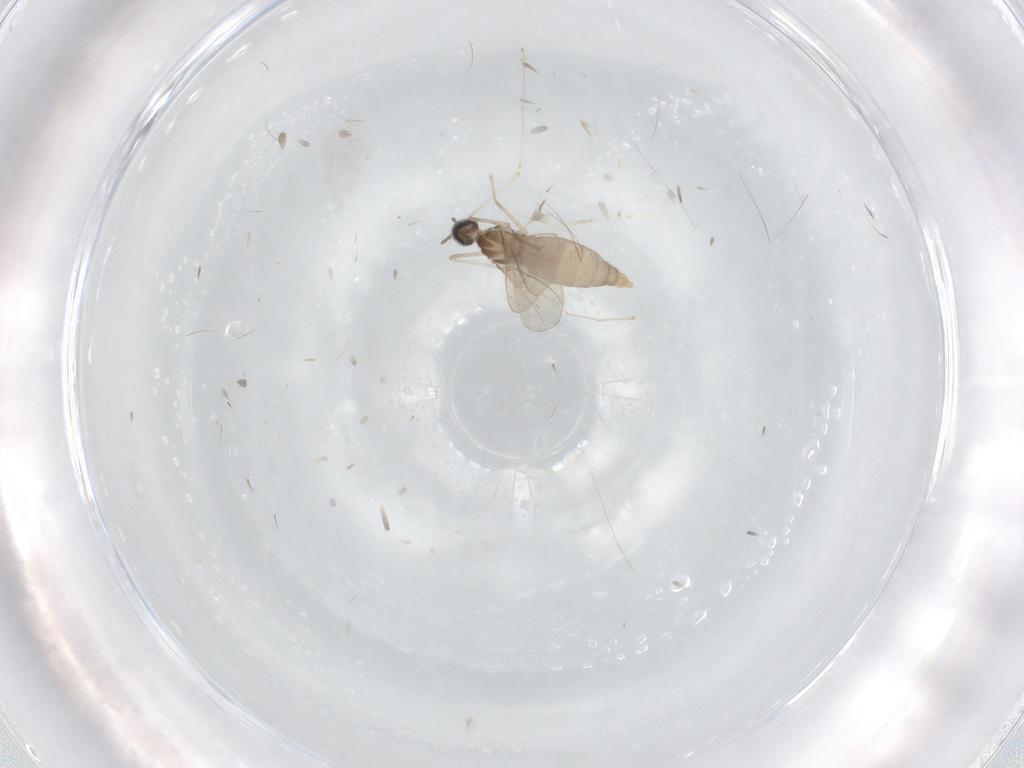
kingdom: Animalia
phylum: Arthropoda
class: Insecta
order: Diptera
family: Cecidomyiidae
